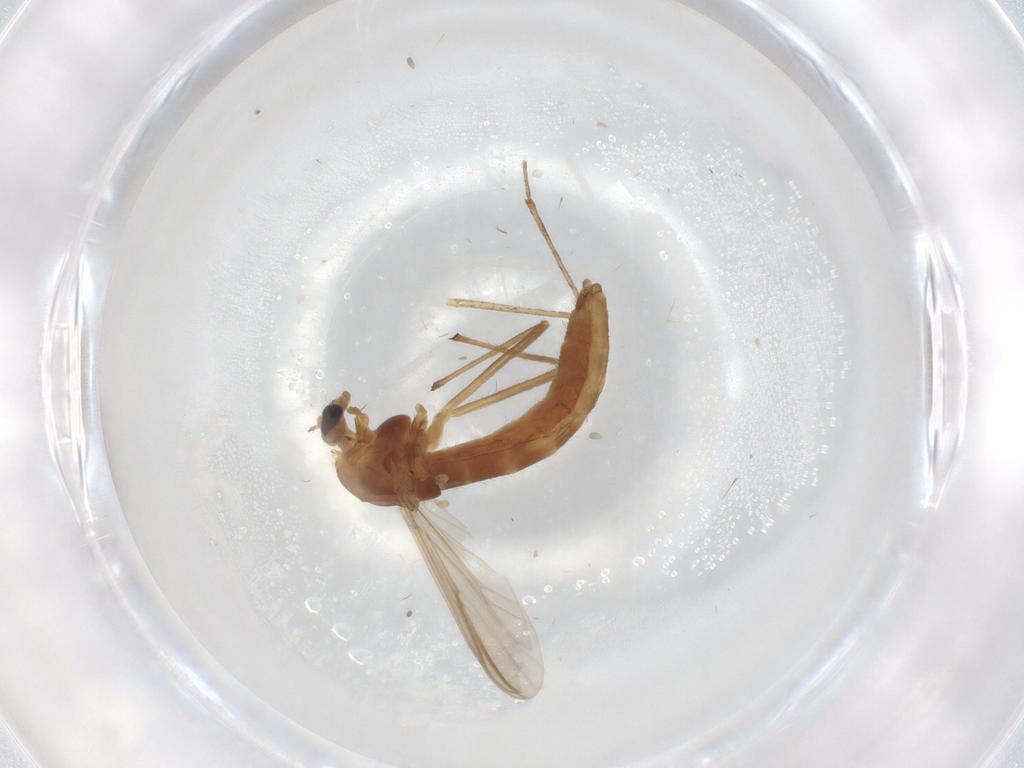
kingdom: Animalia
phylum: Arthropoda
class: Insecta
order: Diptera
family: Chironomidae
